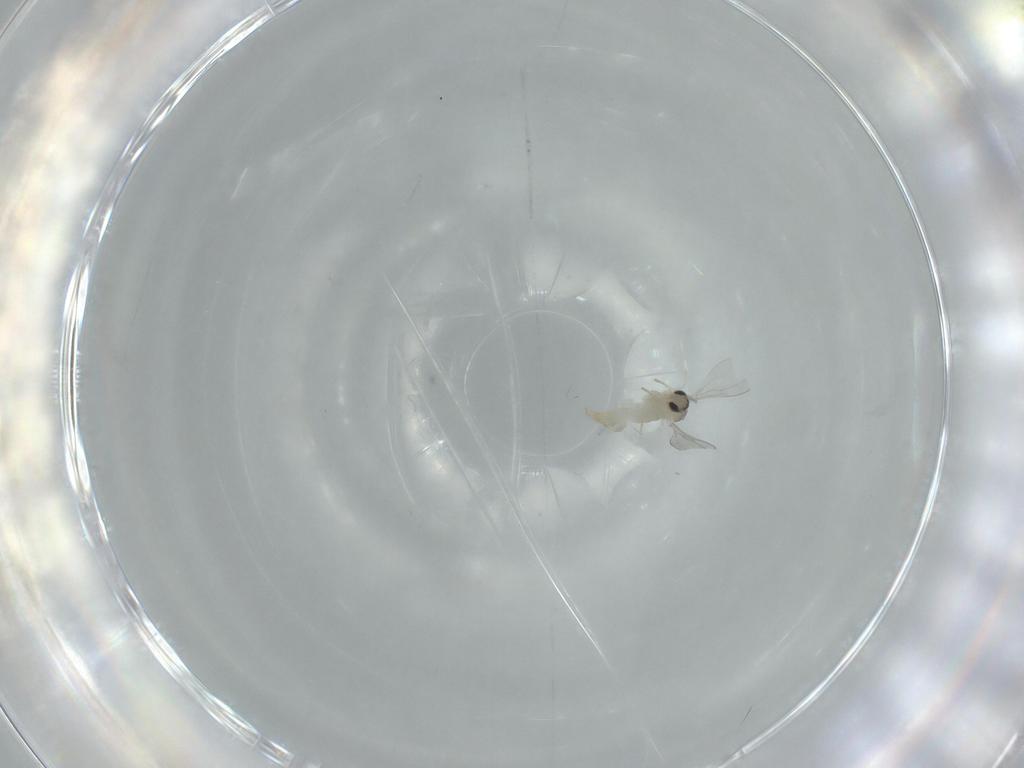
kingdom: Animalia
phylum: Arthropoda
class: Insecta
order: Diptera
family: Cecidomyiidae
